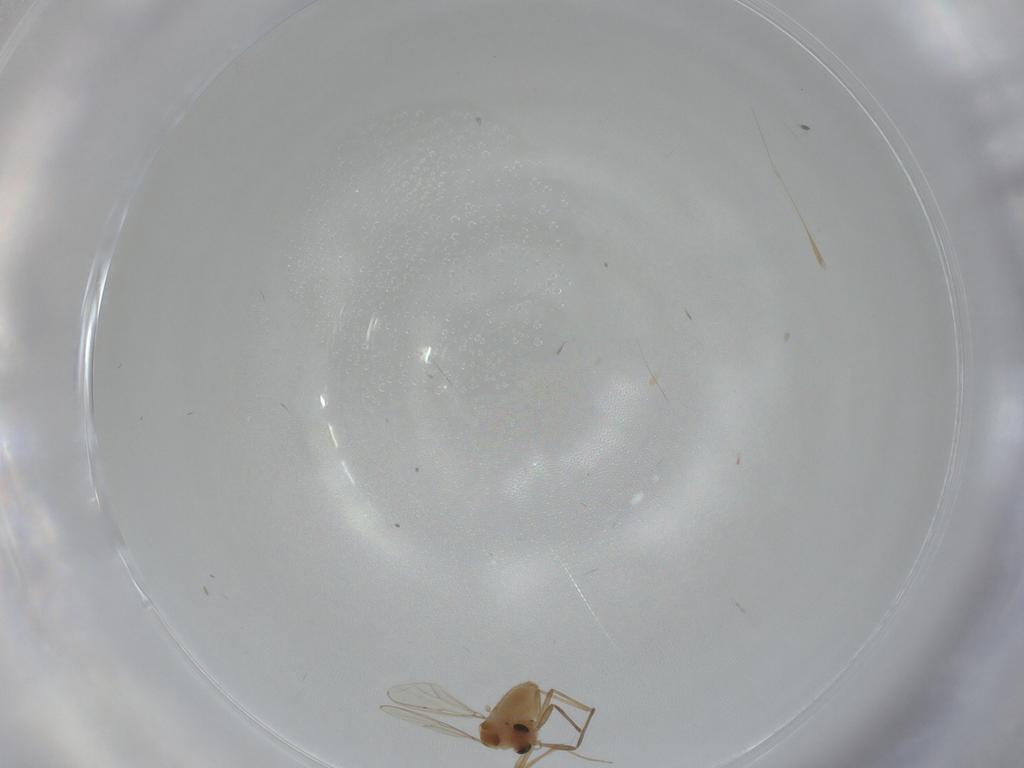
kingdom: Animalia
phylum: Arthropoda
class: Insecta
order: Diptera
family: Chironomidae
